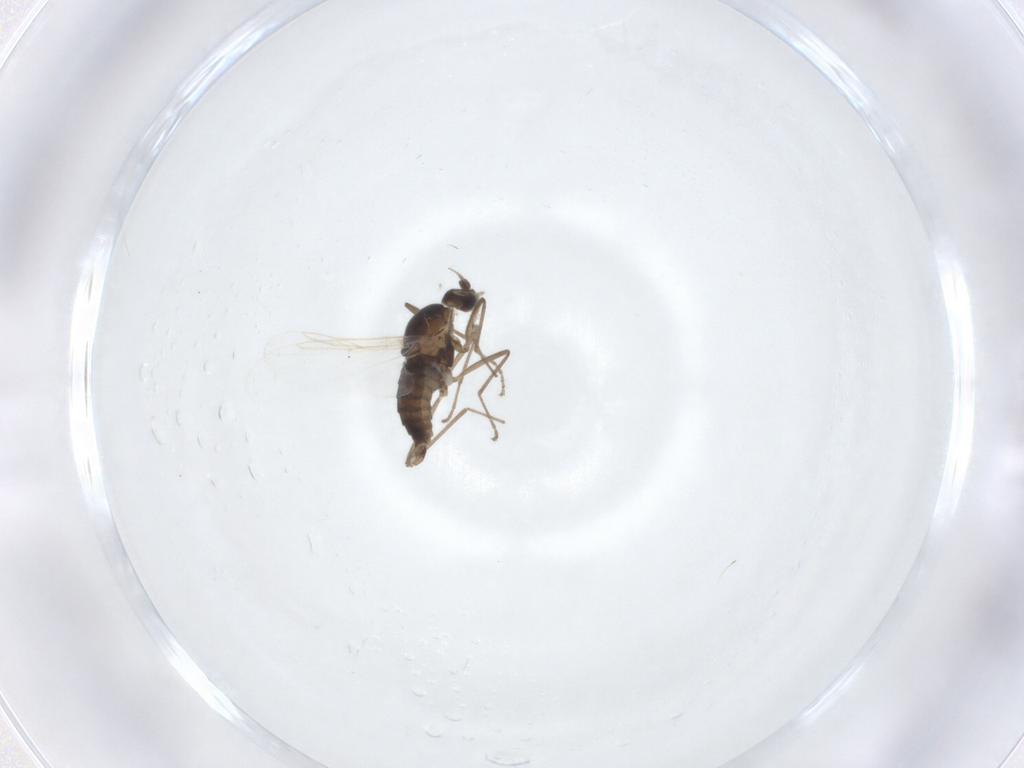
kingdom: Animalia
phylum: Arthropoda
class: Insecta
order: Diptera
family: Cecidomyiidae
